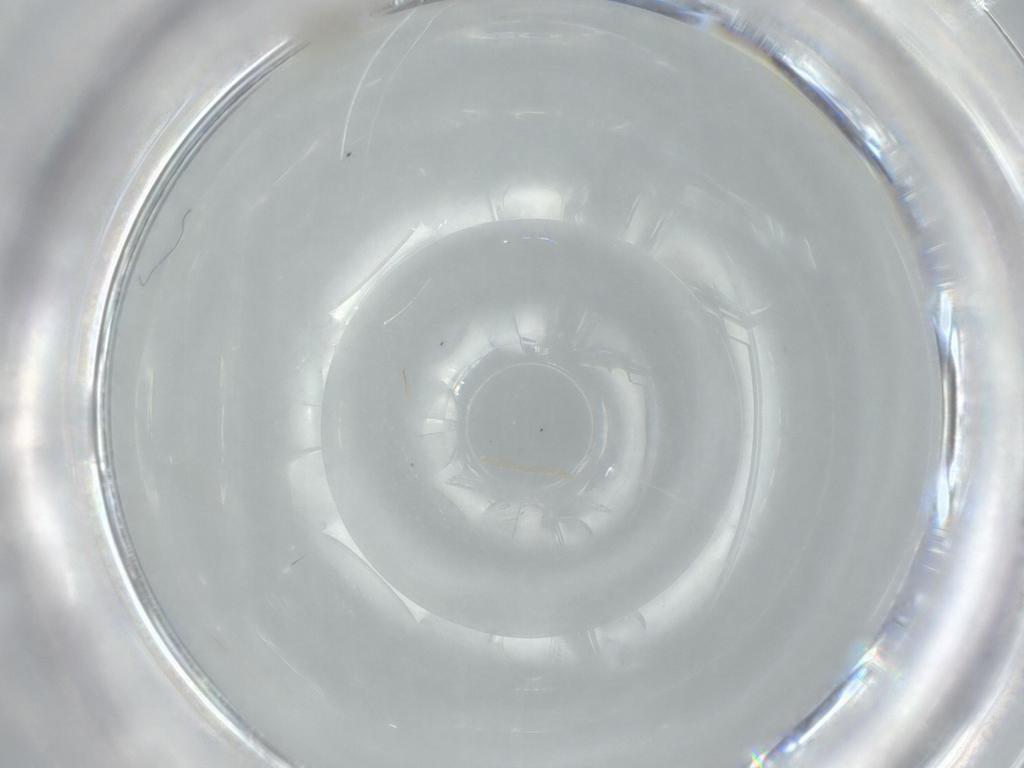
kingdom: Animalia
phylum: Arthropoda
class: Insecta
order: Diptera
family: Cecidomyiidae
